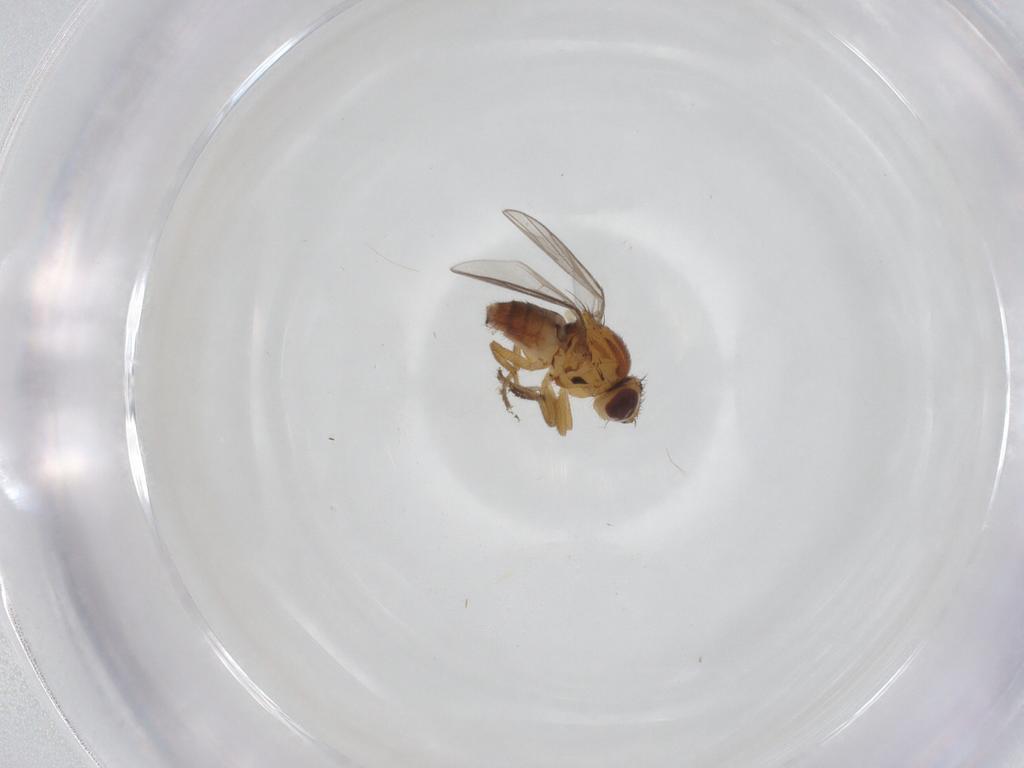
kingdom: Animalia
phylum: Arthropoda
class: Insecta
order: Diptera
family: Chloropidae
